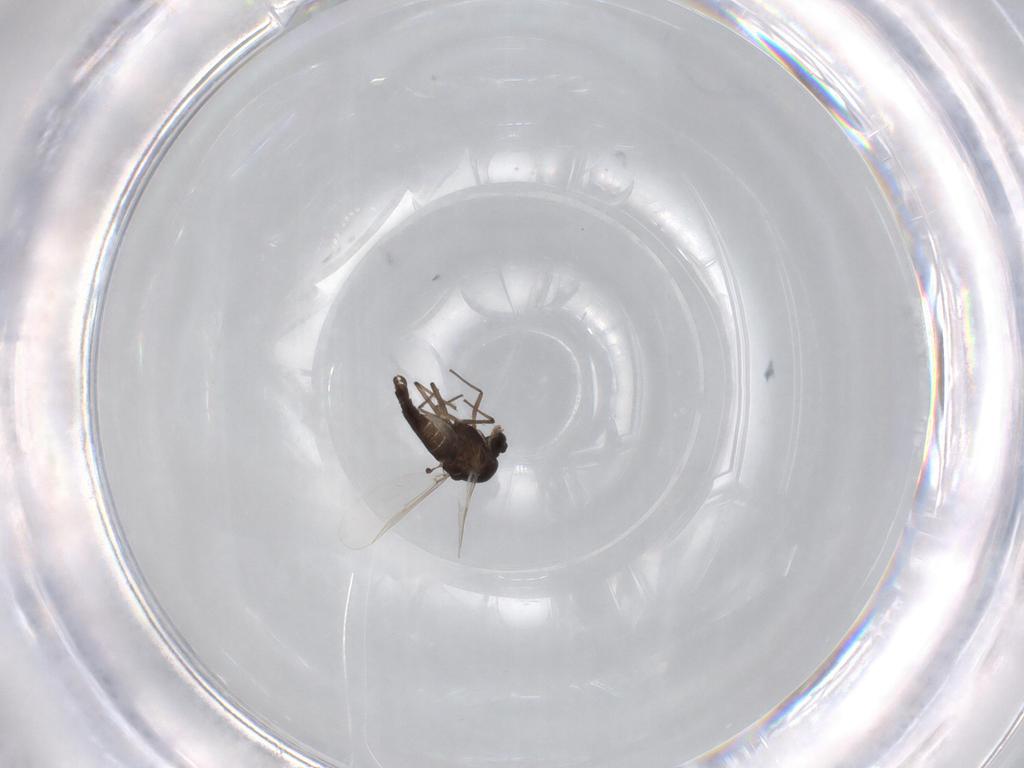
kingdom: Animalia
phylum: Arthropoda
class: Insecta
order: Diptera
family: Chironomidae
